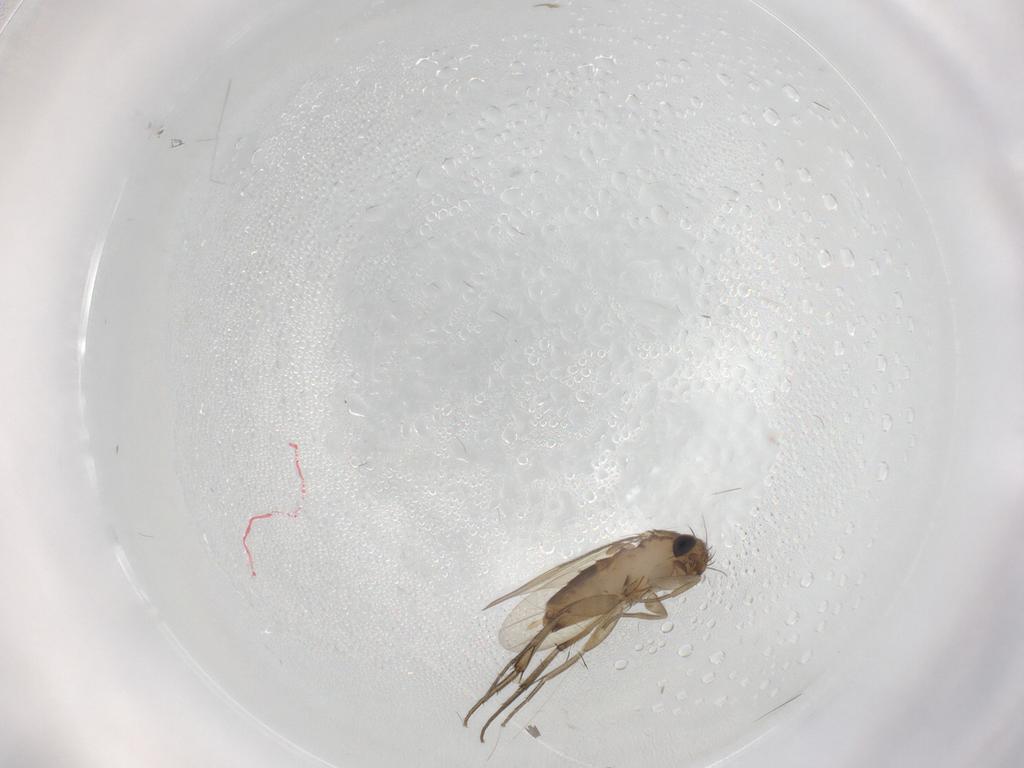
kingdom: Animalia
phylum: Arthropoda
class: Insecta
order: Diptera
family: Phoridae
